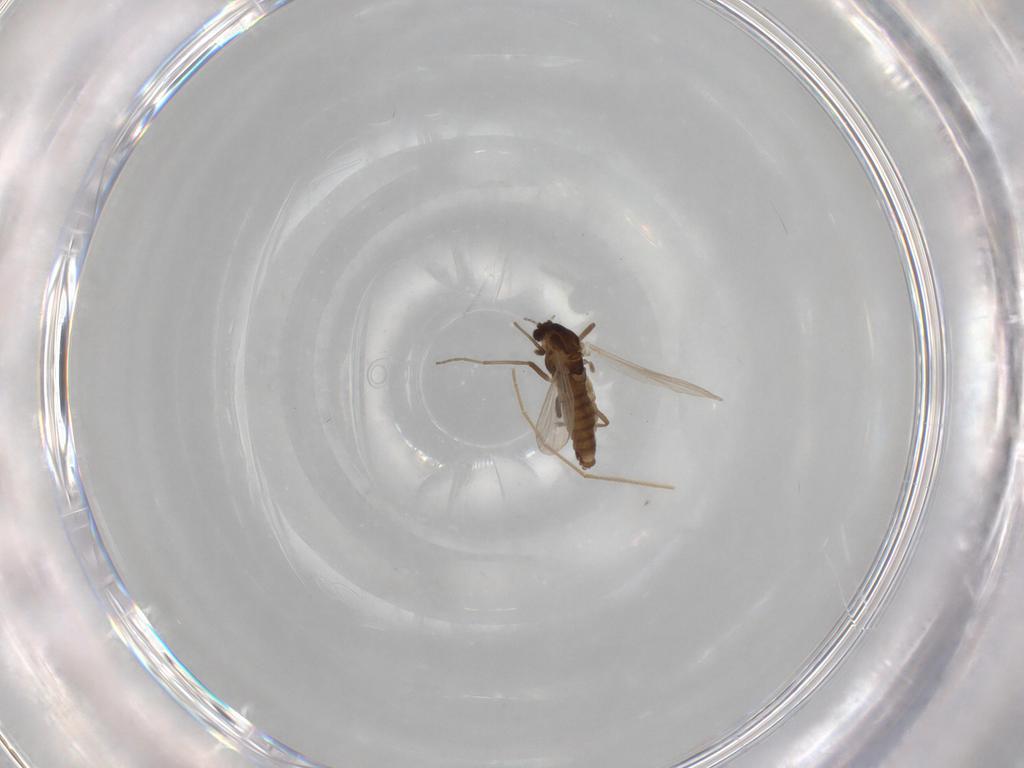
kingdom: Animalia
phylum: Arthropoda
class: Insecta
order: Diptera
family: Chironomidae
